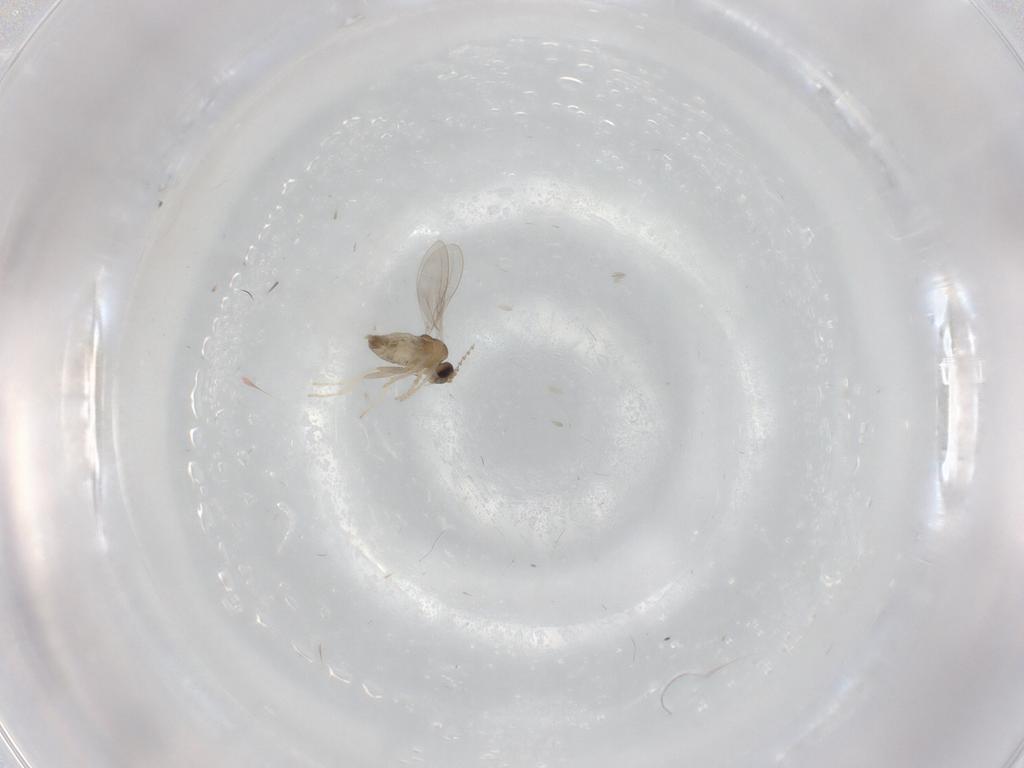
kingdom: Animalia
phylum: Arthropoda
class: Insecta
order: Diptera
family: Cecidomyiidae
